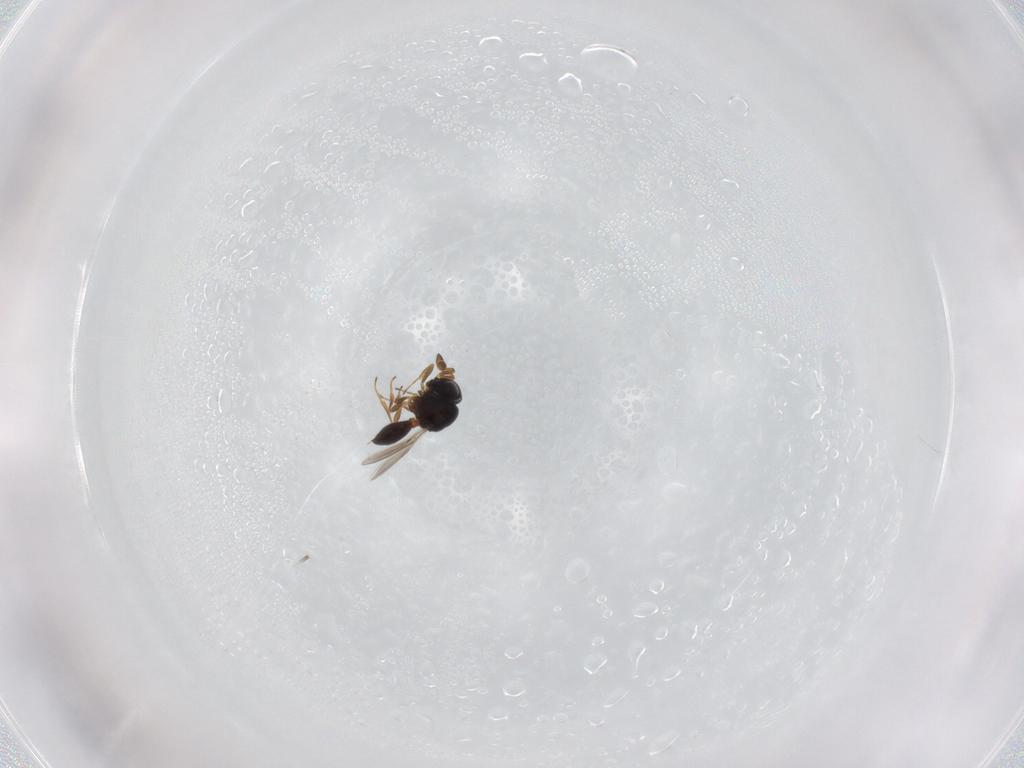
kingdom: Animalia
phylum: Arthropoda
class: Insecta
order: Hymenoptera
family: Scelionidae
